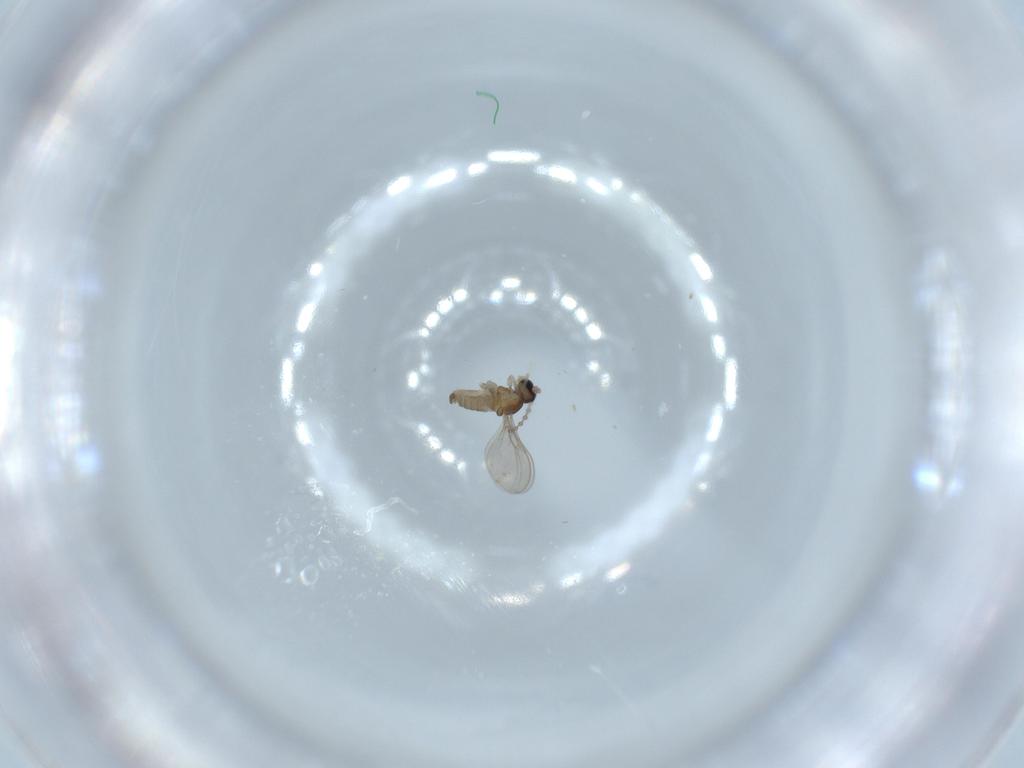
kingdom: Animalia
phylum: Arthropoda
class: Insecta
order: Diptera
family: Cecidomyiidae
